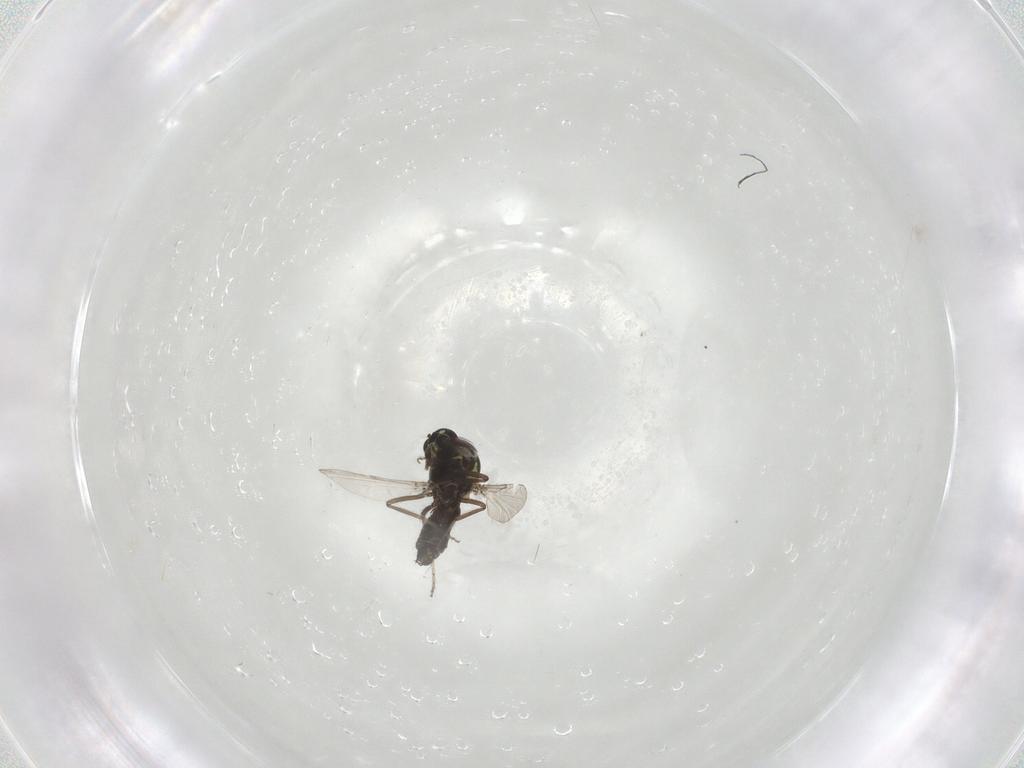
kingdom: Animalia
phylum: Arthropoda
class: Insecta
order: Diptera
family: Ceratopogonidae
